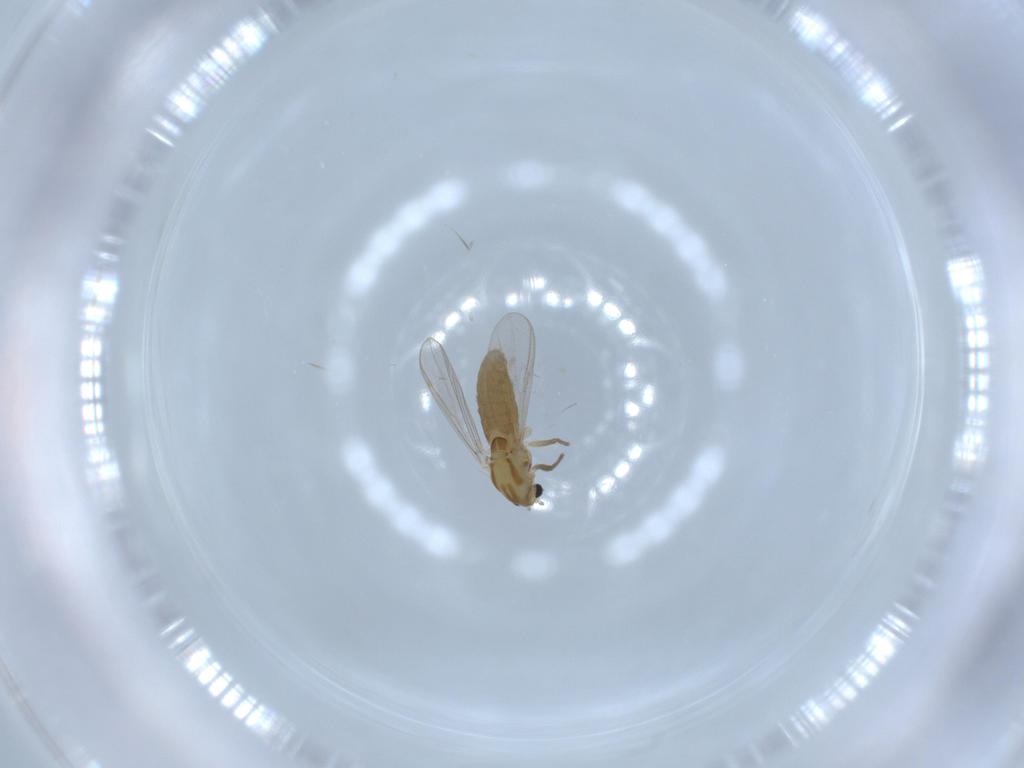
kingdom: Animalia
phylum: Arthropoda
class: Insecta
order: Diptera
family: Chironomidae
